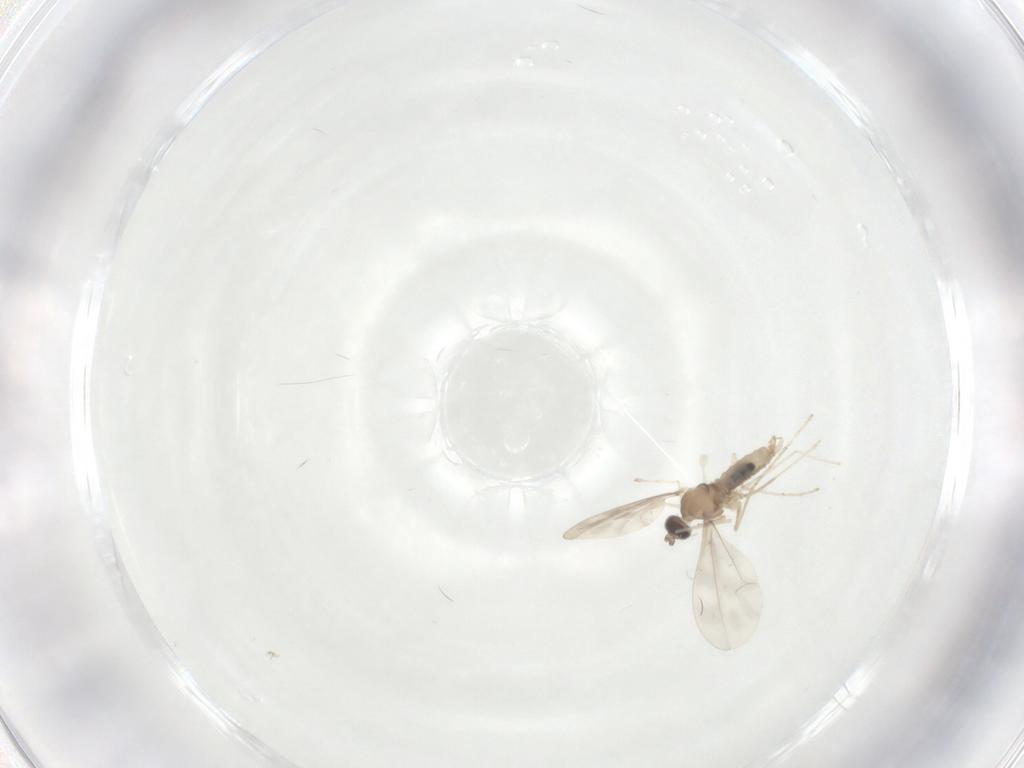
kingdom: Animalia
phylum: Arthropoda
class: Insecta
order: Diptera
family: Cecidomyiidae
